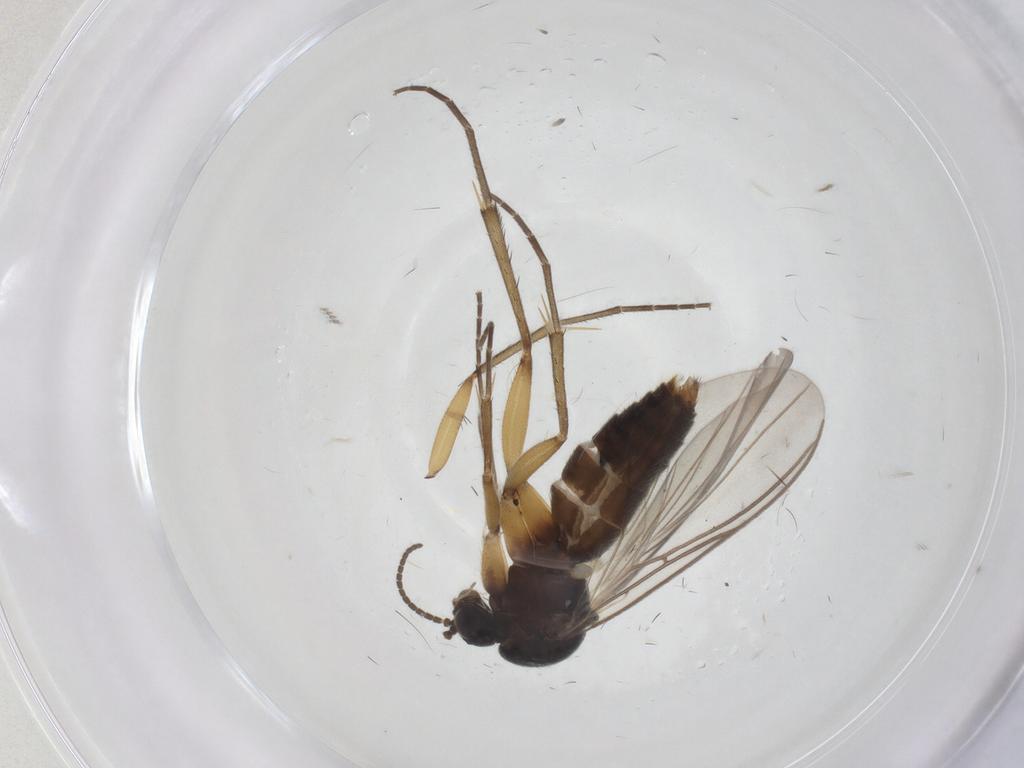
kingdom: Animalia
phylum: Arthropoda
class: Insecta
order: Diptera
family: Mycetophilidae
